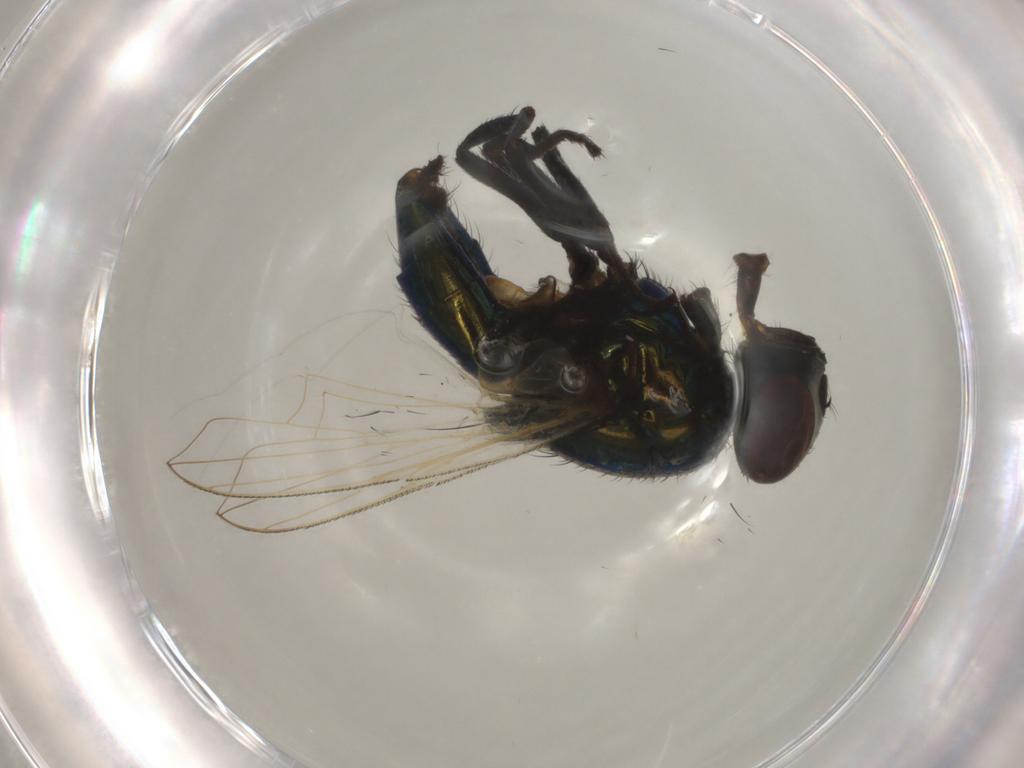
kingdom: Animalia
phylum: Arthropoda
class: Insecta
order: Diptera
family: Muscidae
